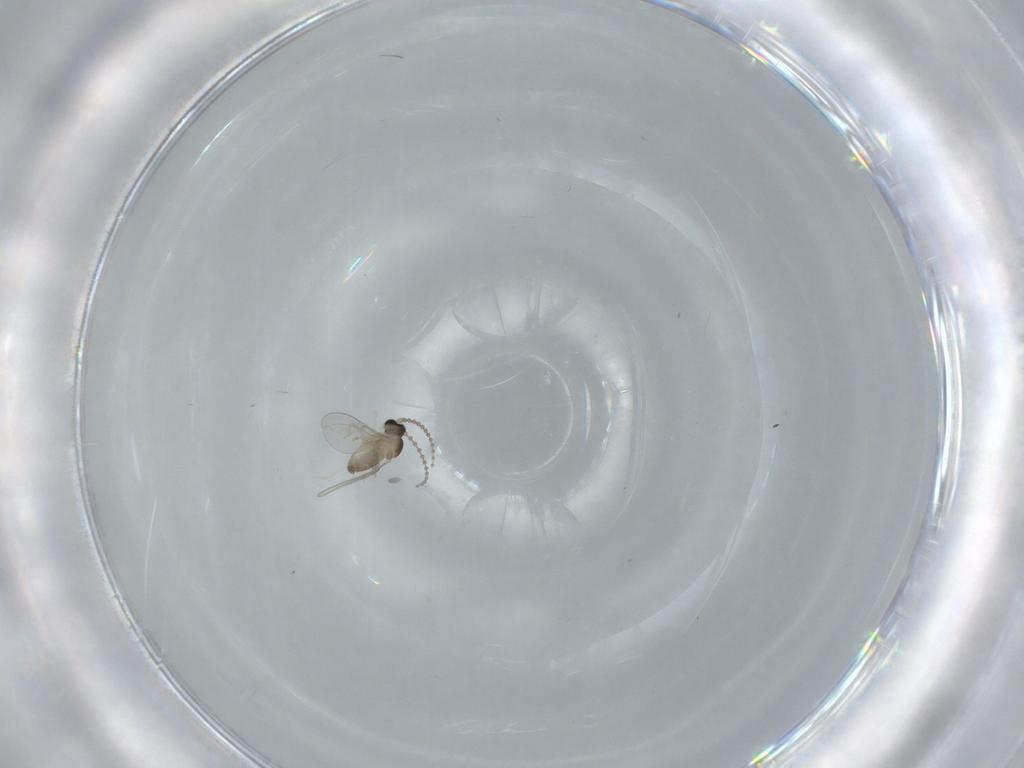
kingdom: Animalia
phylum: Arthropoda
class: Insecta
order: Diptera
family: Cecidomyiidae
